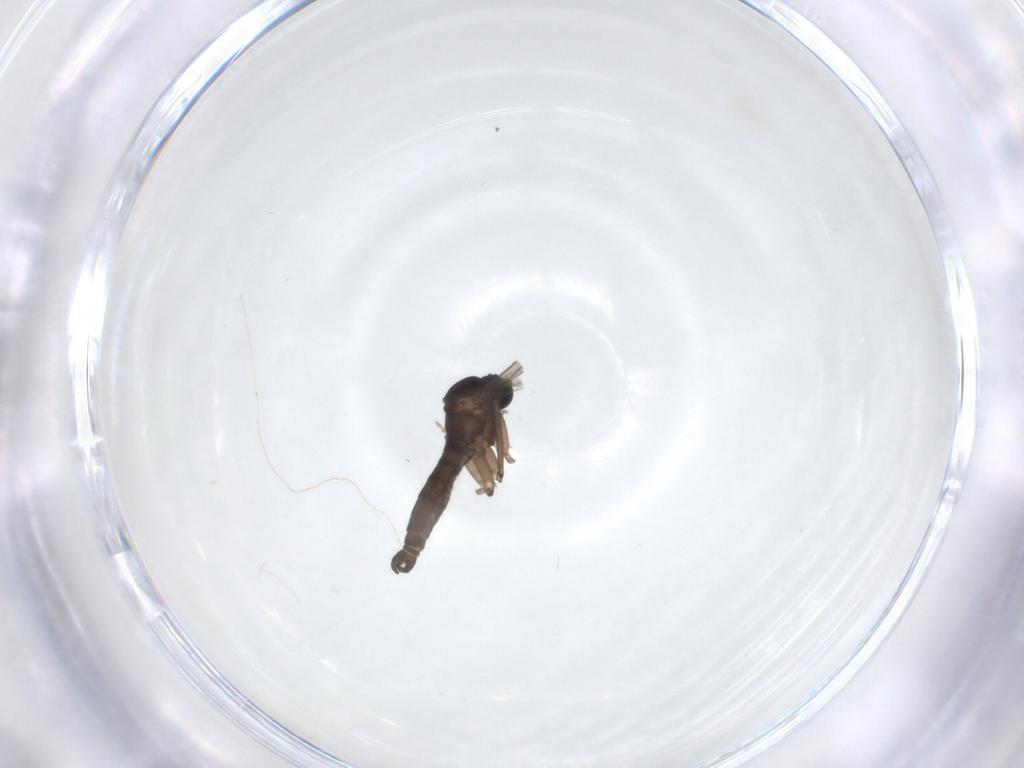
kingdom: Animalia
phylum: Arthropoda
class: Insecta
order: Diptera
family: Sciaridae
